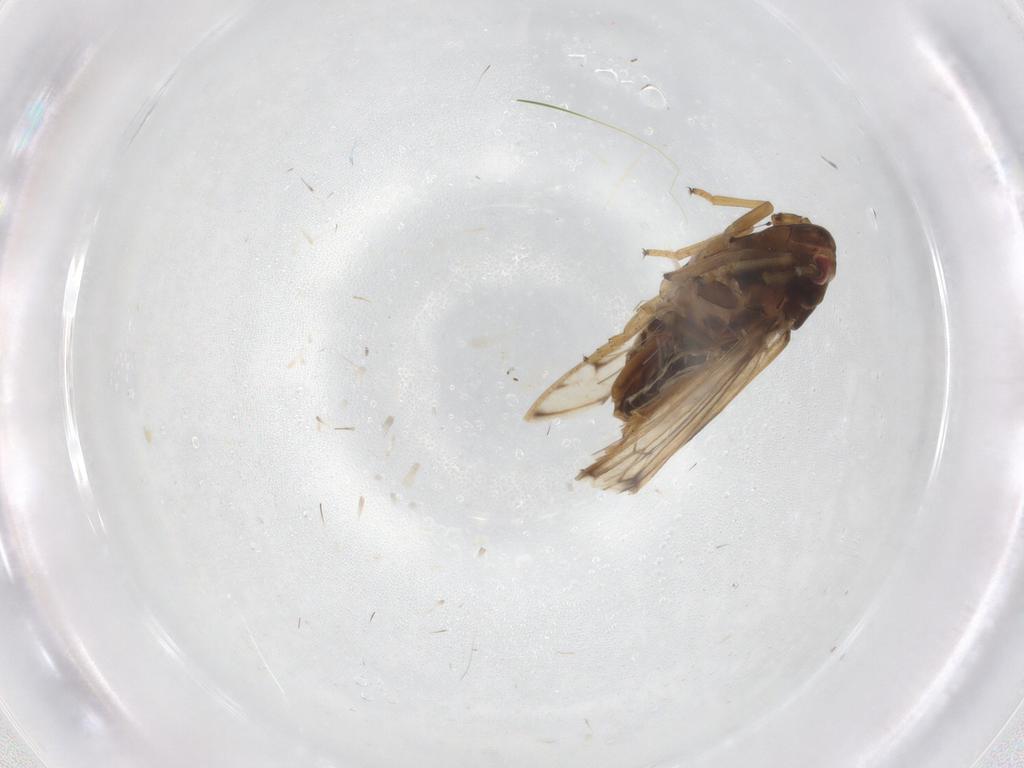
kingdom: Animalia
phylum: Arthropoda
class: Insecta
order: Hemiptera
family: Delphacidae
